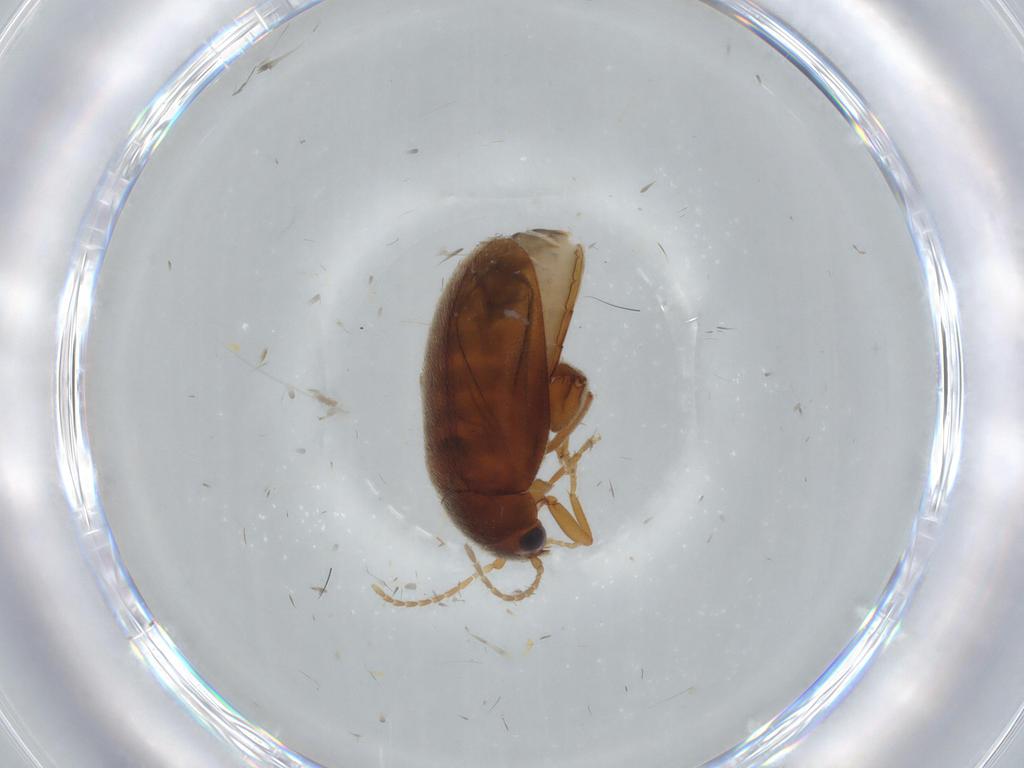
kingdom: Animalia
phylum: Arthropoda
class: Insecta
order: Coleoptera
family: Scirtidae
